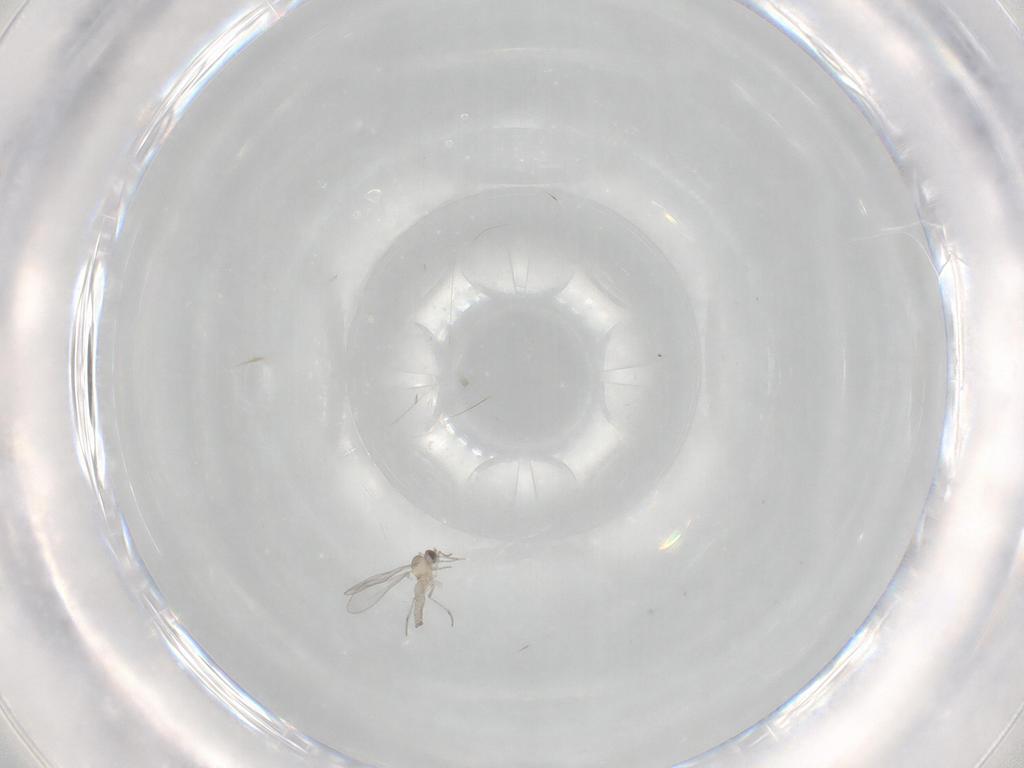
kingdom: Animalia
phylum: Arthropoda
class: Insecta
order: Diptera
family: Cecidomyiidae
